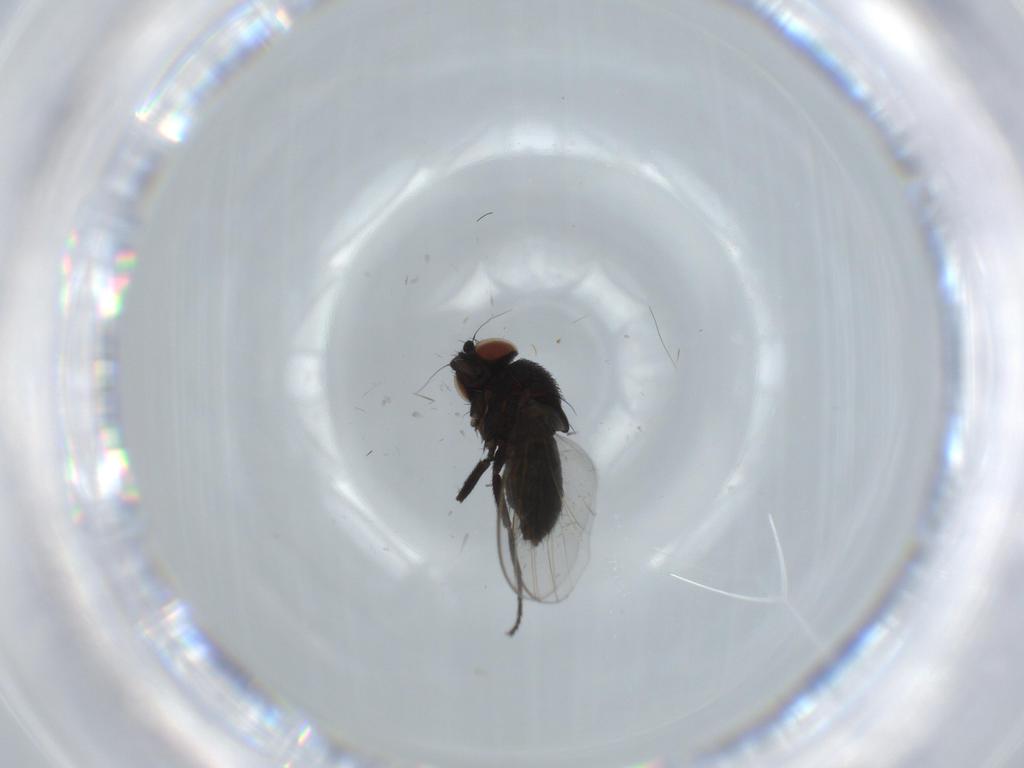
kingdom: Animalia
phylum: Arthropoda
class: Insecta
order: Diptera
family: Milichiidae
